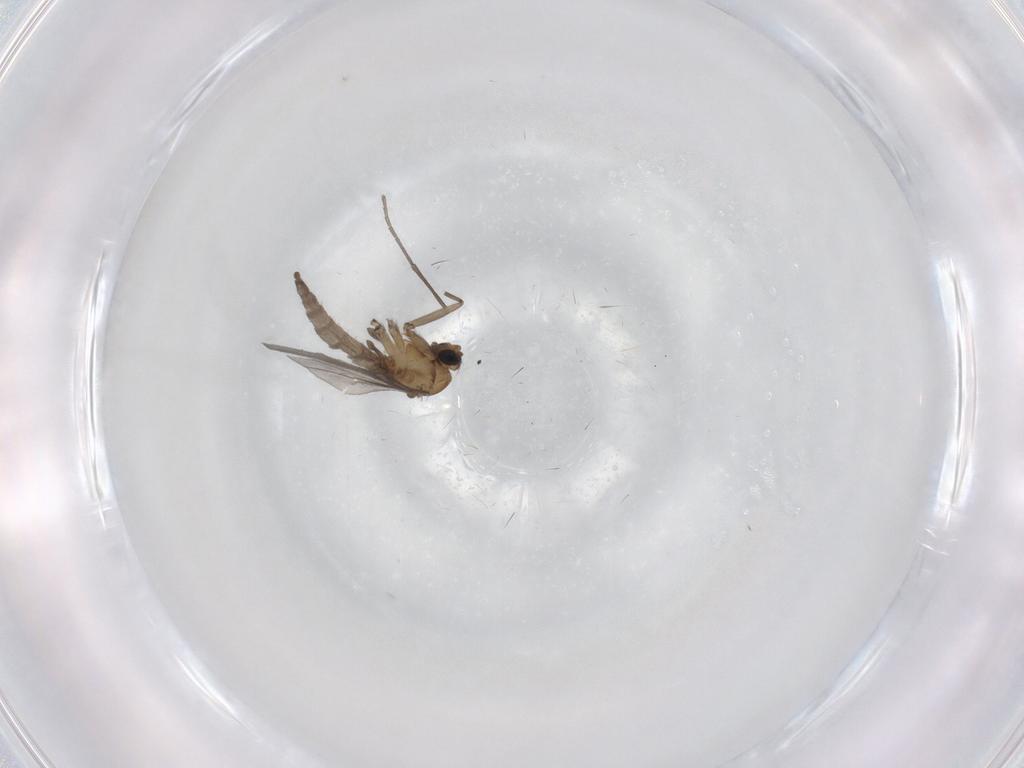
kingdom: Animalia
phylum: Arthropoda
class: Insecta
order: Diptera
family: Sciaridae
